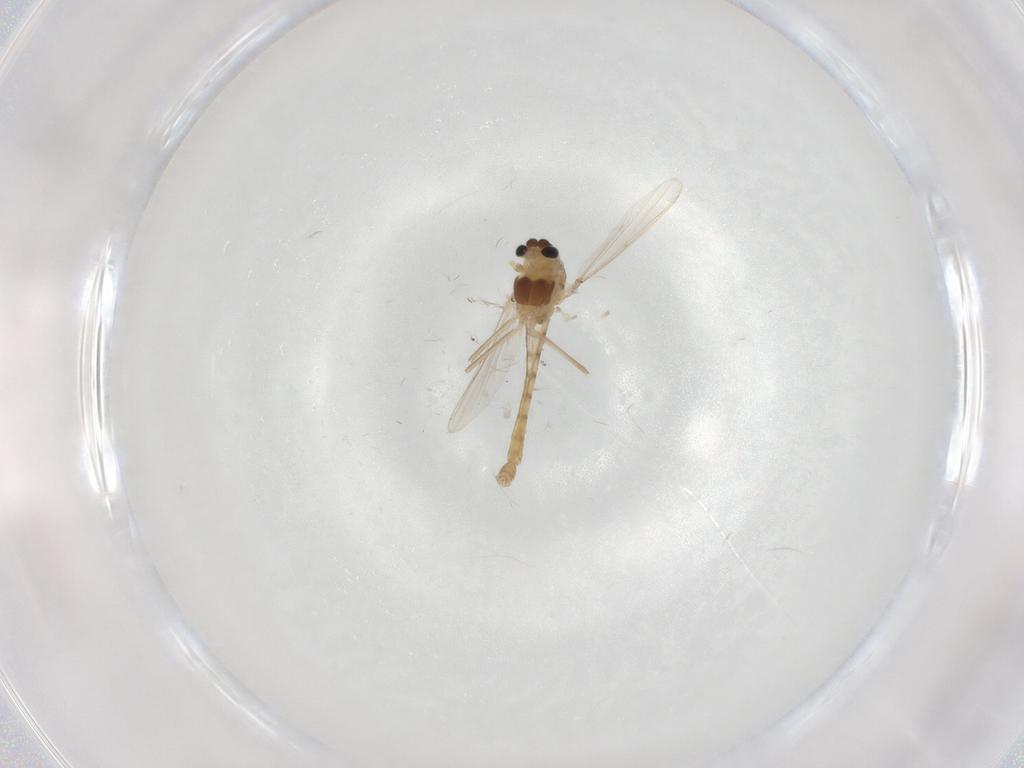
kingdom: Animalia
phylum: Arthropoda
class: Insecta
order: Diptera
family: Chironomidae
